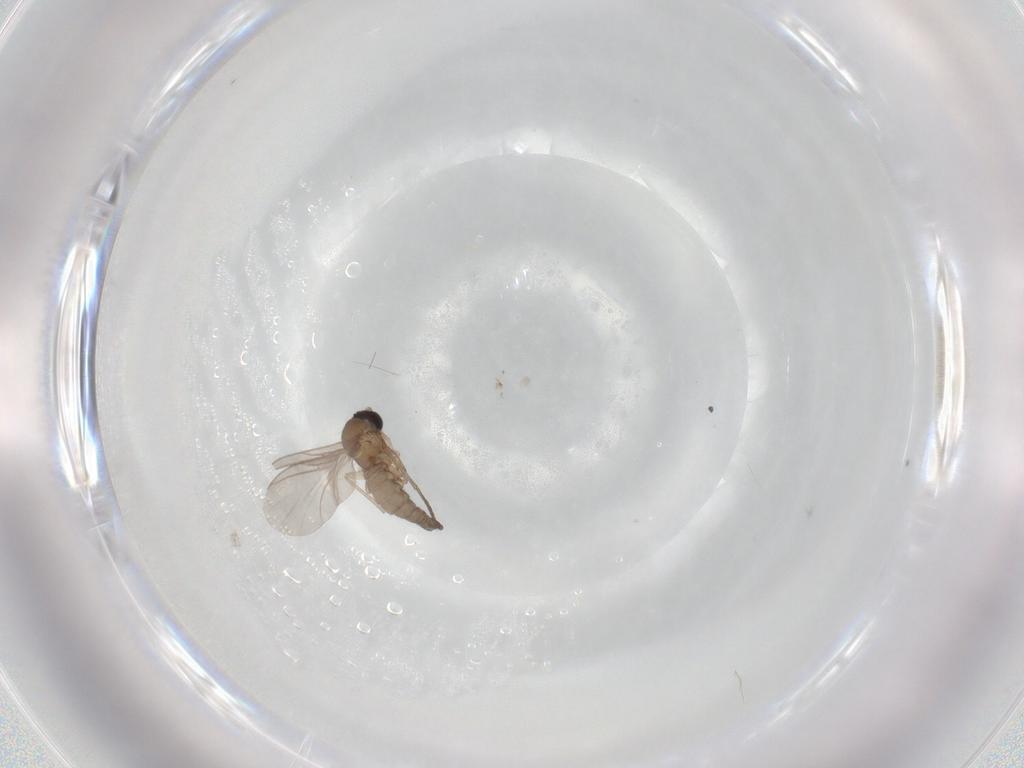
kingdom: Animalia
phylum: Arthropoda
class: Insecta
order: Diptera
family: Sciaridae
